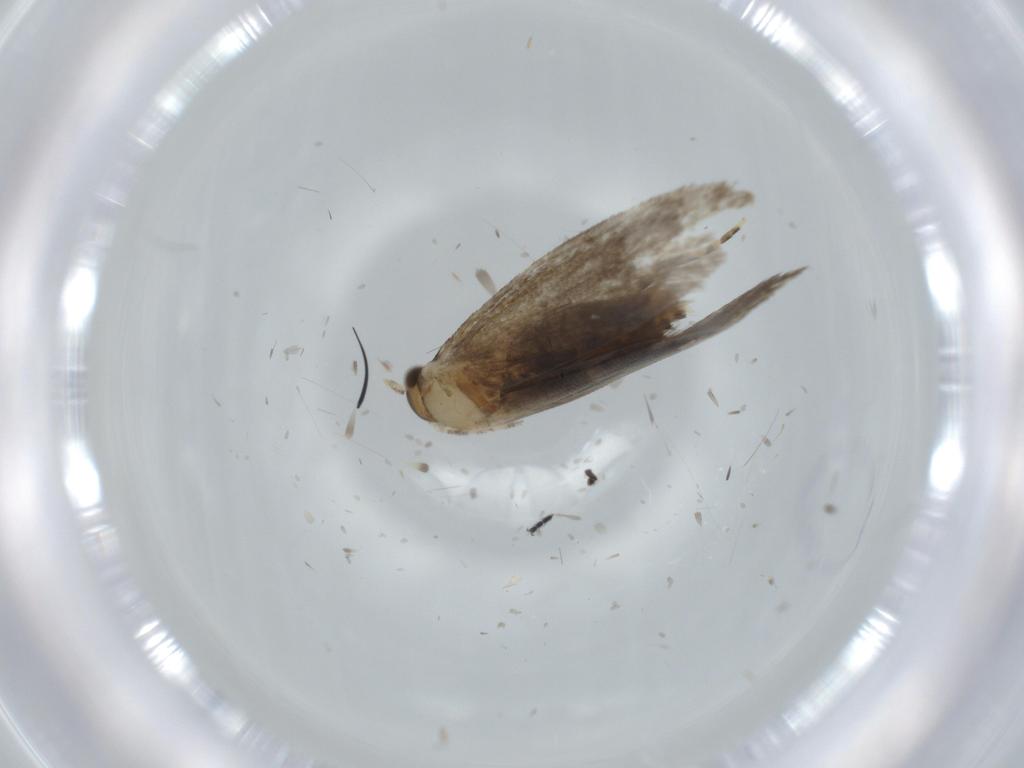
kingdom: Animalia
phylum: Arthropoda
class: Insecta
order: Lepidoptera
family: Tineidae
